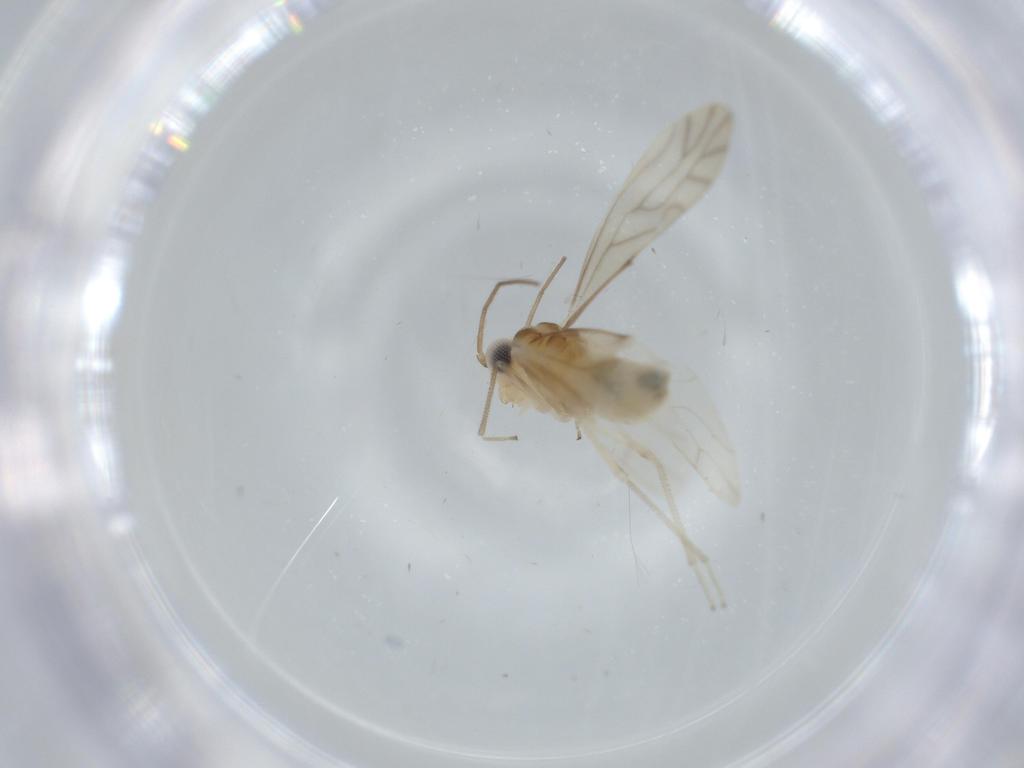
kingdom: Animalia
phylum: Arthropoda
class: Insecta
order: Psocodea
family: Caeciliusidae
